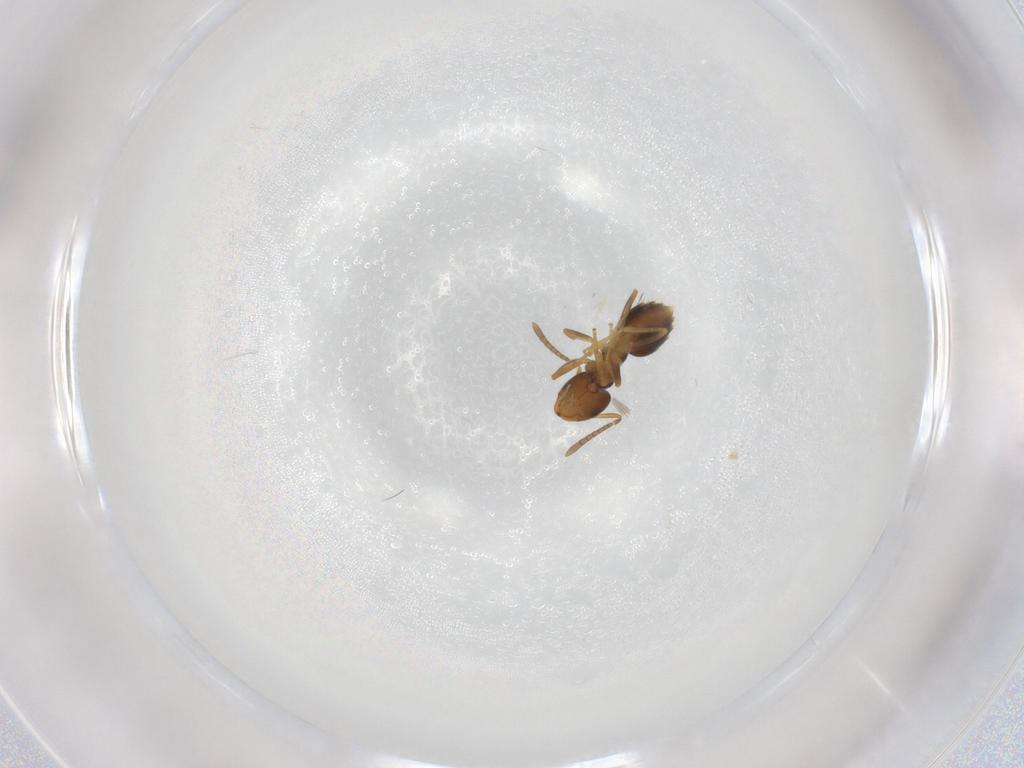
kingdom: Animalia
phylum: Arthropoda
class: Insecta
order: Hymenoptera
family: Formicidae
